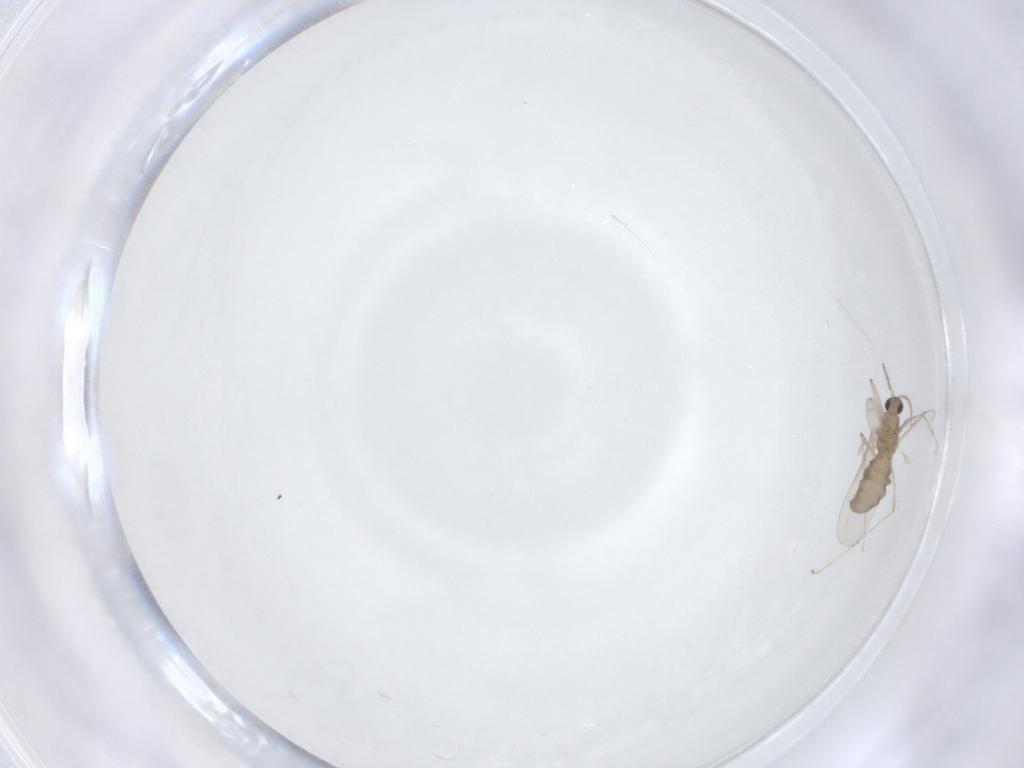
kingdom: Animalia
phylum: Arthropoda
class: Insecta
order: Diptera
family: Cecidomyiidae
